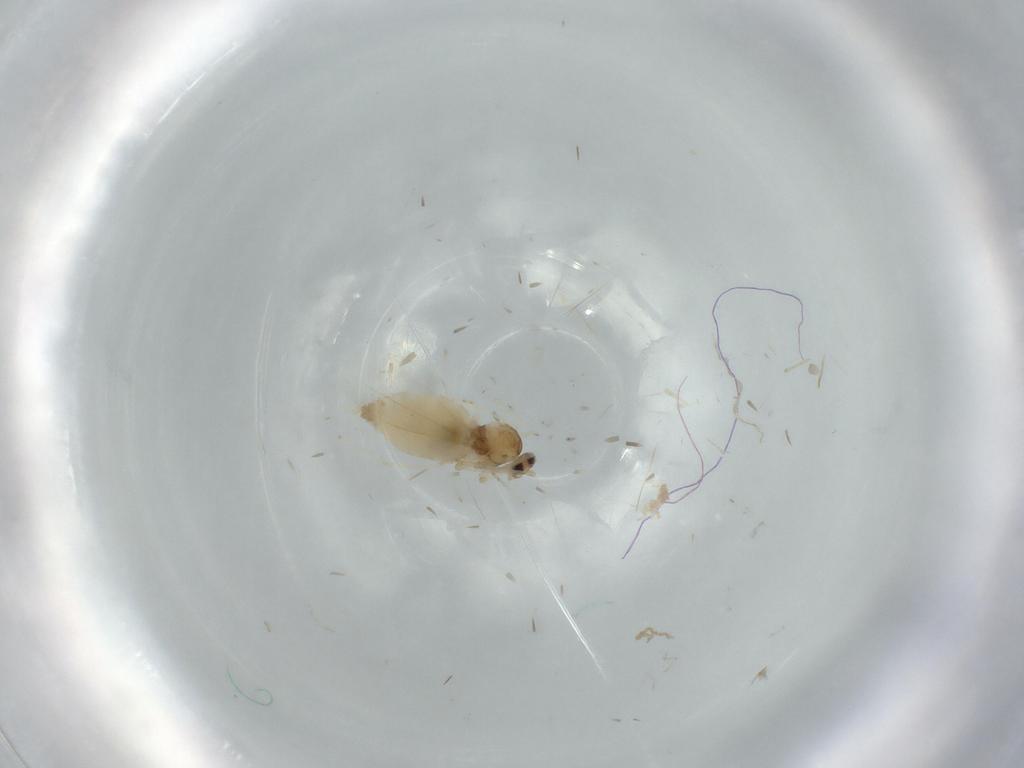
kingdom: Animalia
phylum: Arthropoda
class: Insecta
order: Diptera
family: Cecidomyiidae
